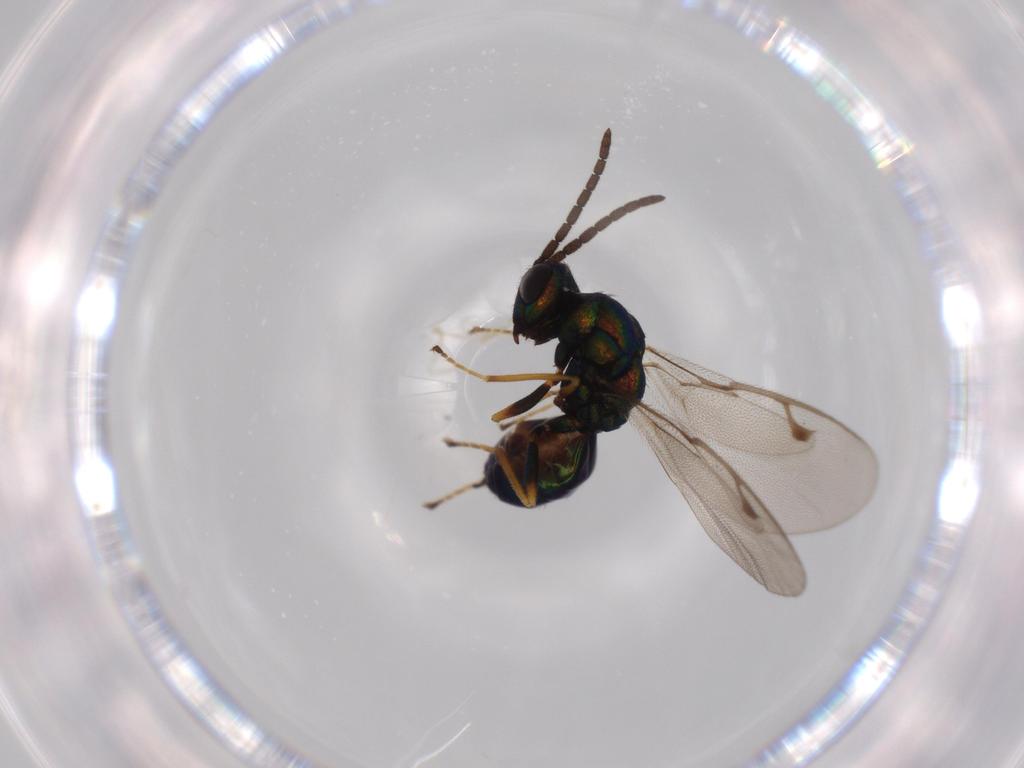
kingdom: Animalia
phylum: Arthropoda
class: Insecta
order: Hymenoptera
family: Pteromalidae
